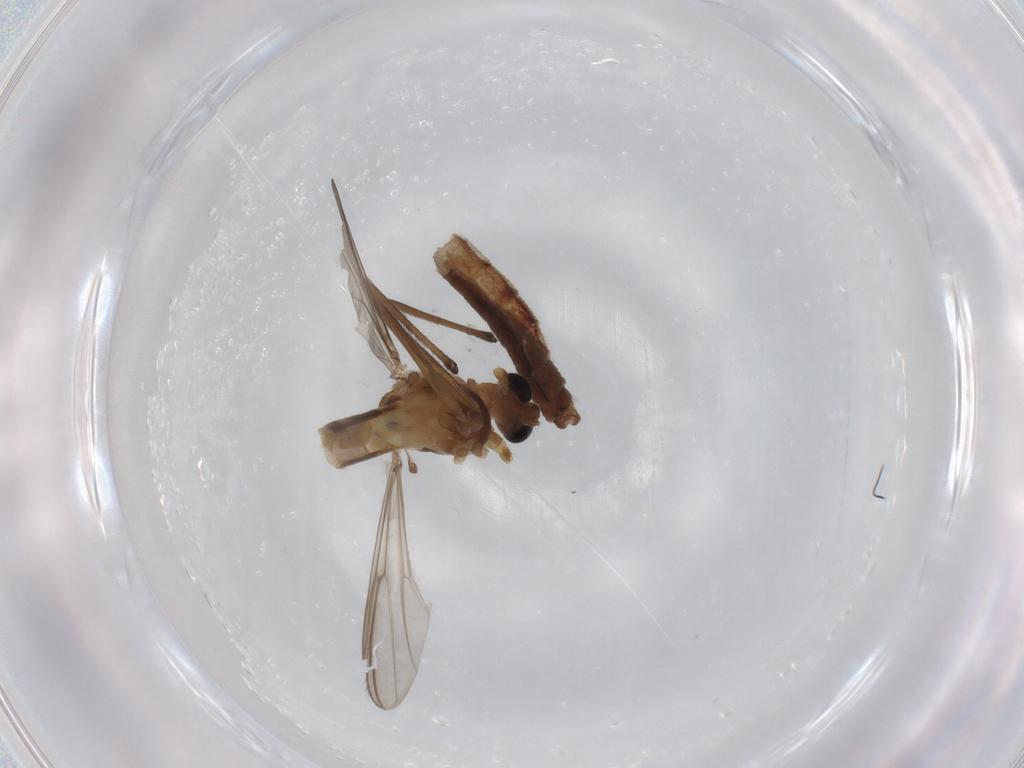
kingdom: Animalia
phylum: Arthropoda
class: Insecta
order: Diptera
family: Chironomidae
